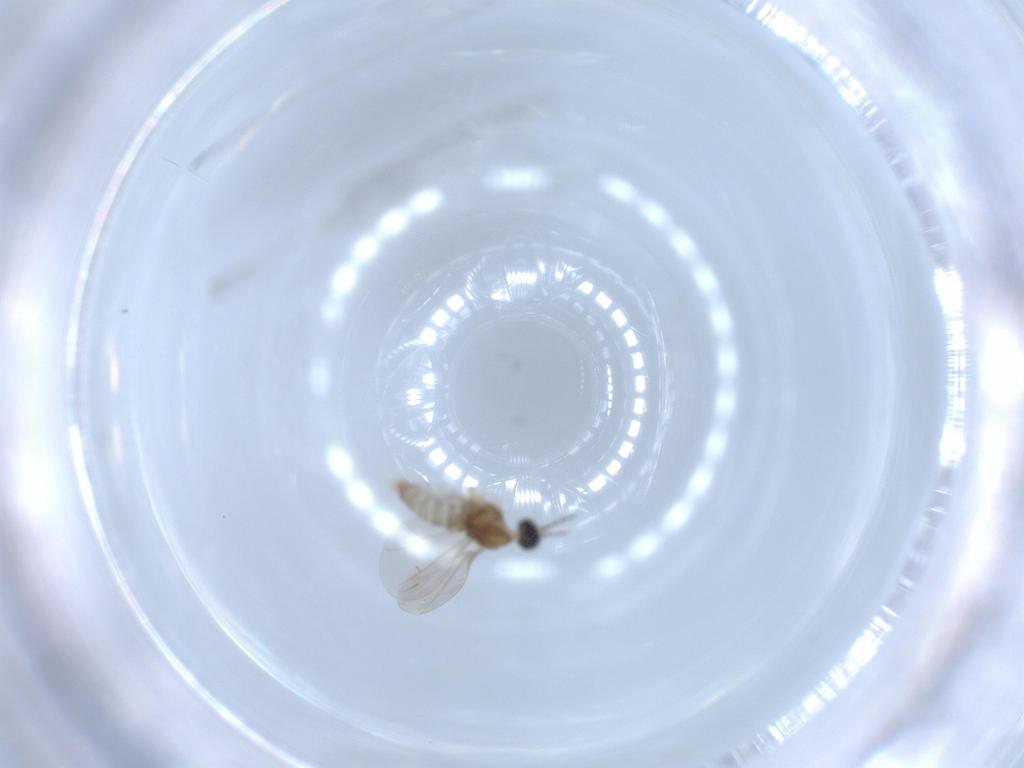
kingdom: Animalia
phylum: Arthropoda
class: Insecta
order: Diptera
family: Cecidomyiidae
